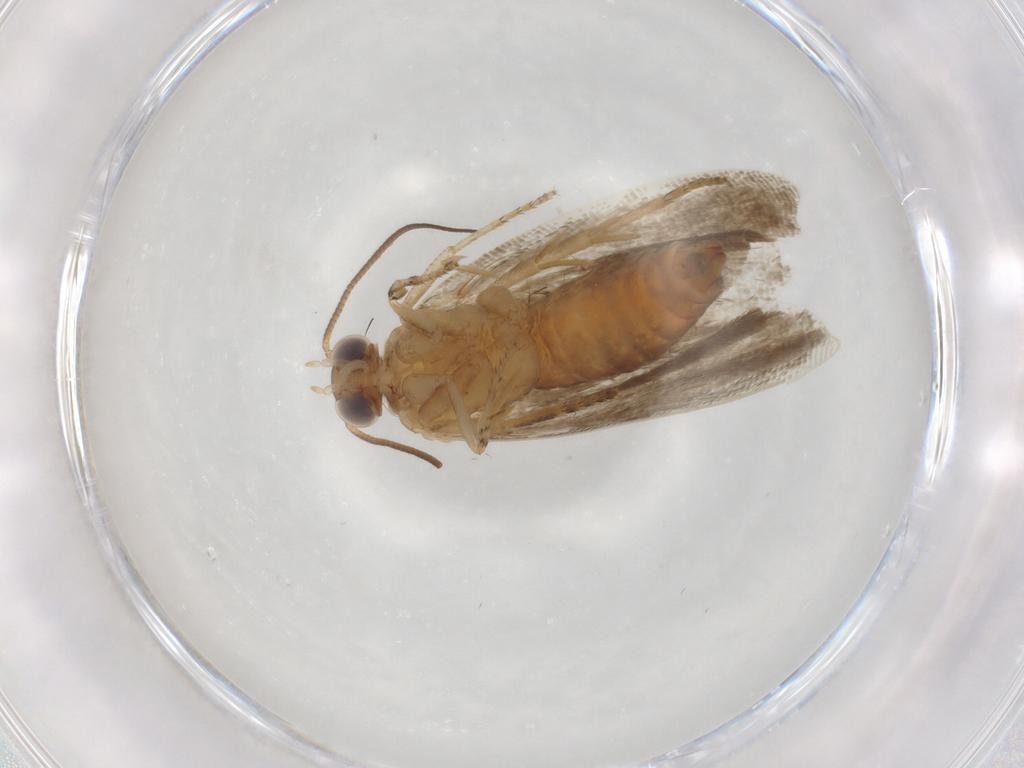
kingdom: Animalia
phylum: Arthropoda
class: Insecta
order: Lepidoptera
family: Tortricidae
